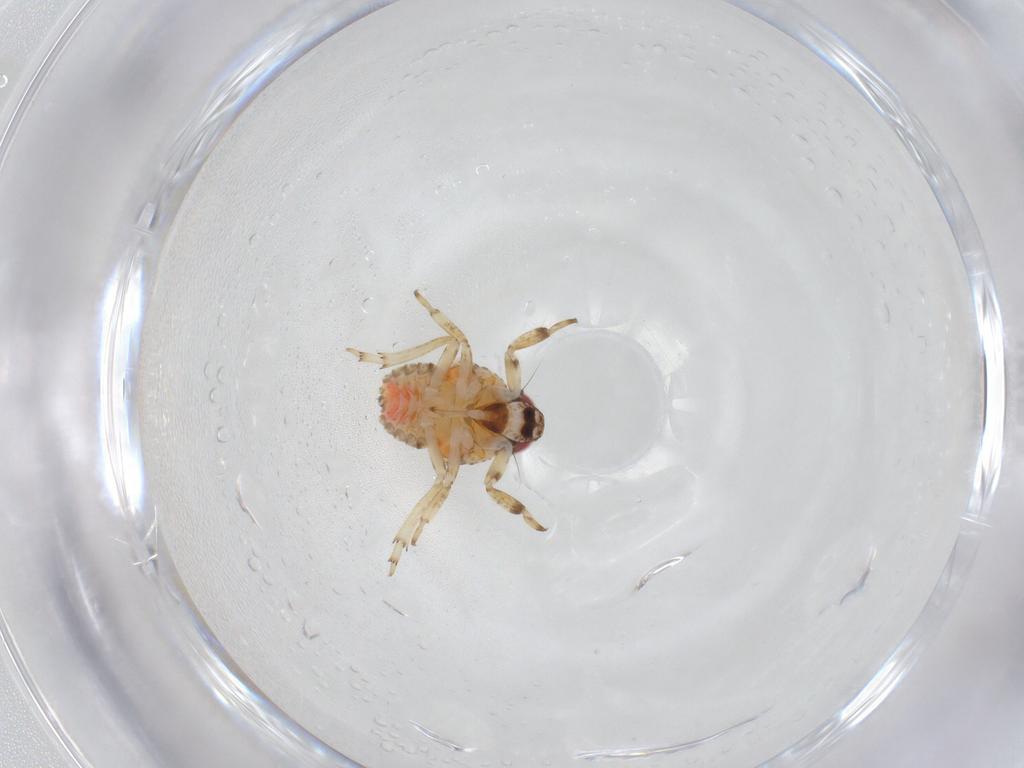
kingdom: Animalia
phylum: Arthropoda
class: Insecta
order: Hemiptera
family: Issidae
